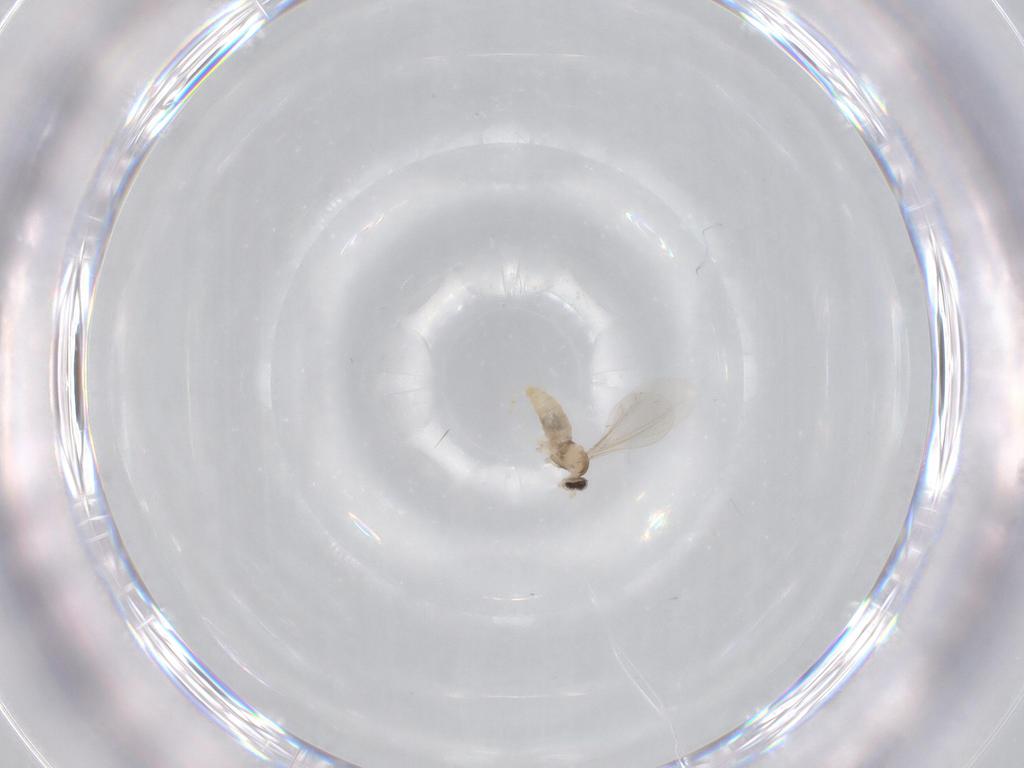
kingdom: Animalia
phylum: Arthropoda
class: Insecta
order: Diptera
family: Cecidomyiidae
